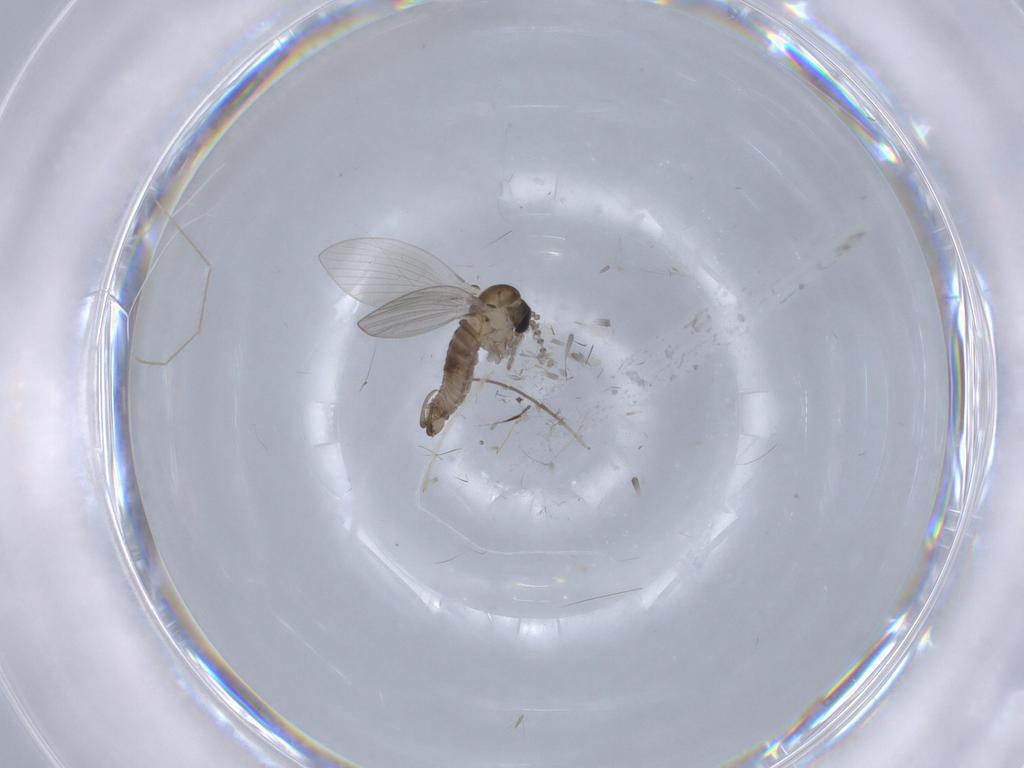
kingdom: Animalia
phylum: Arthropoda
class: Insecta
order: Diptera
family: Psychodidae
